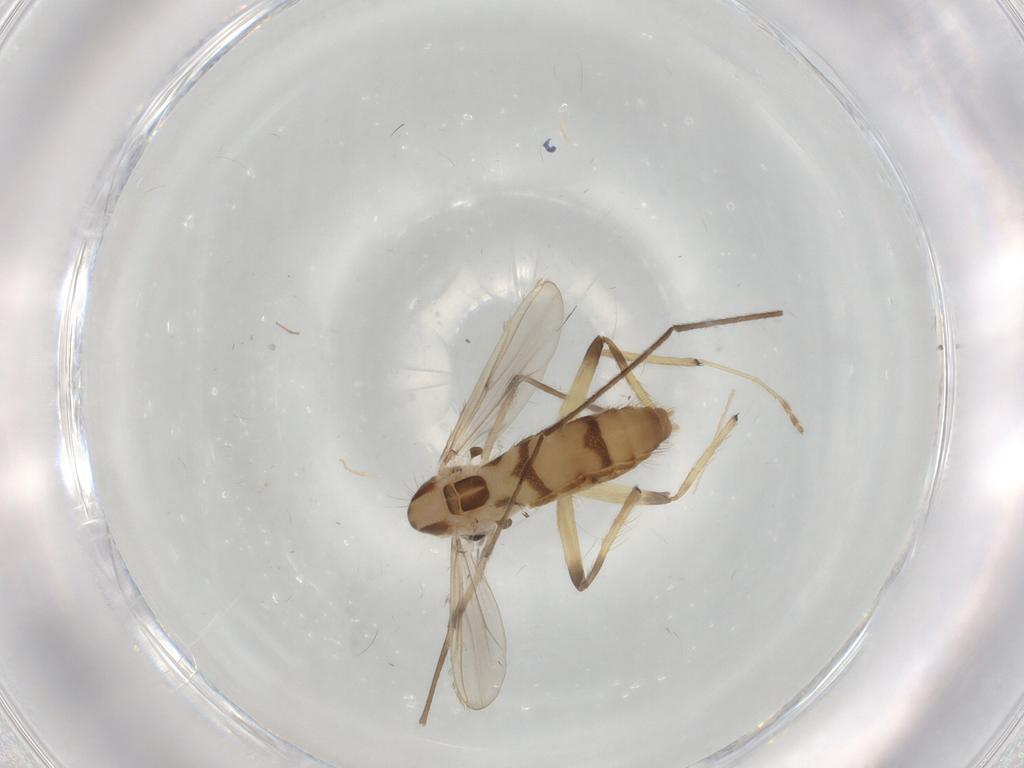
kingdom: Animalia
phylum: Arthropoda
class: Insecta
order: Diptera
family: Chironomidae
